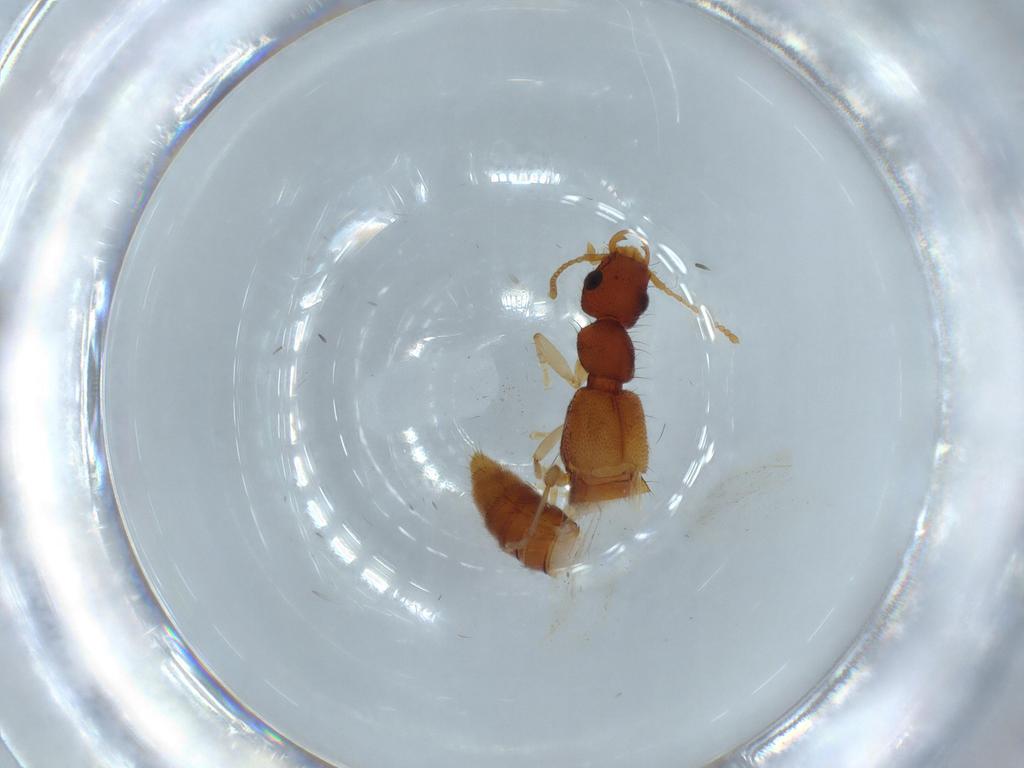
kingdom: Animalia
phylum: Arthropoda
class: Insecta
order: Coleoptera
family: Staphylinidae
